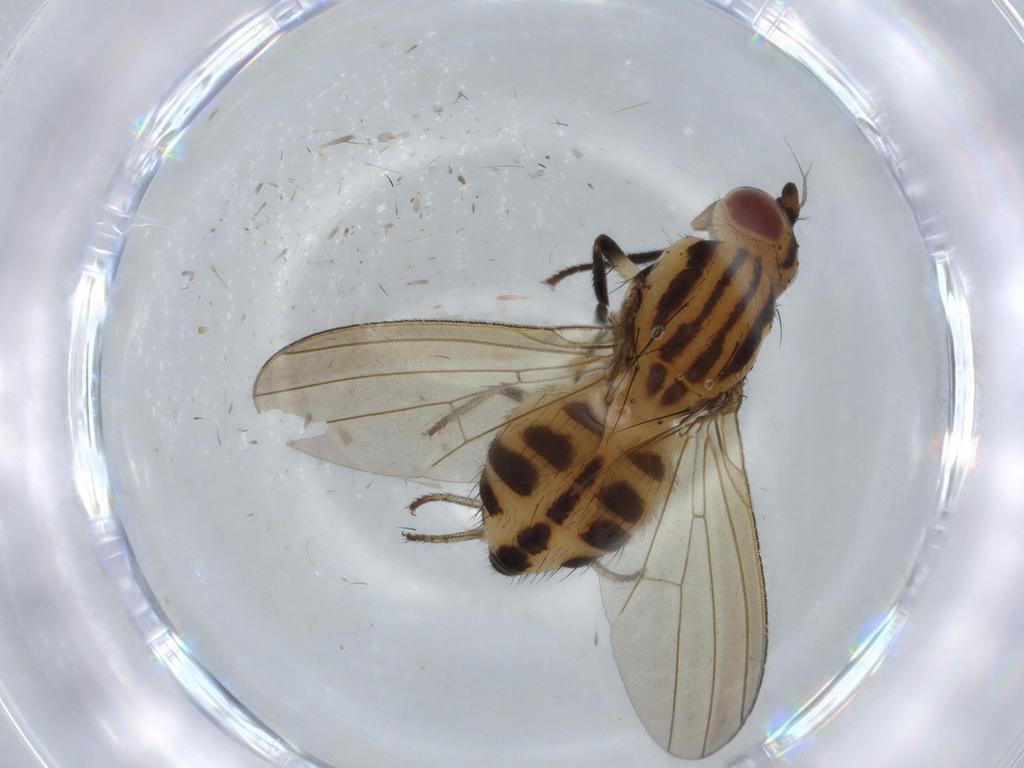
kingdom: Animalia
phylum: Arthropoda
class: Insecta
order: Diptera
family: Lauxaniidae
